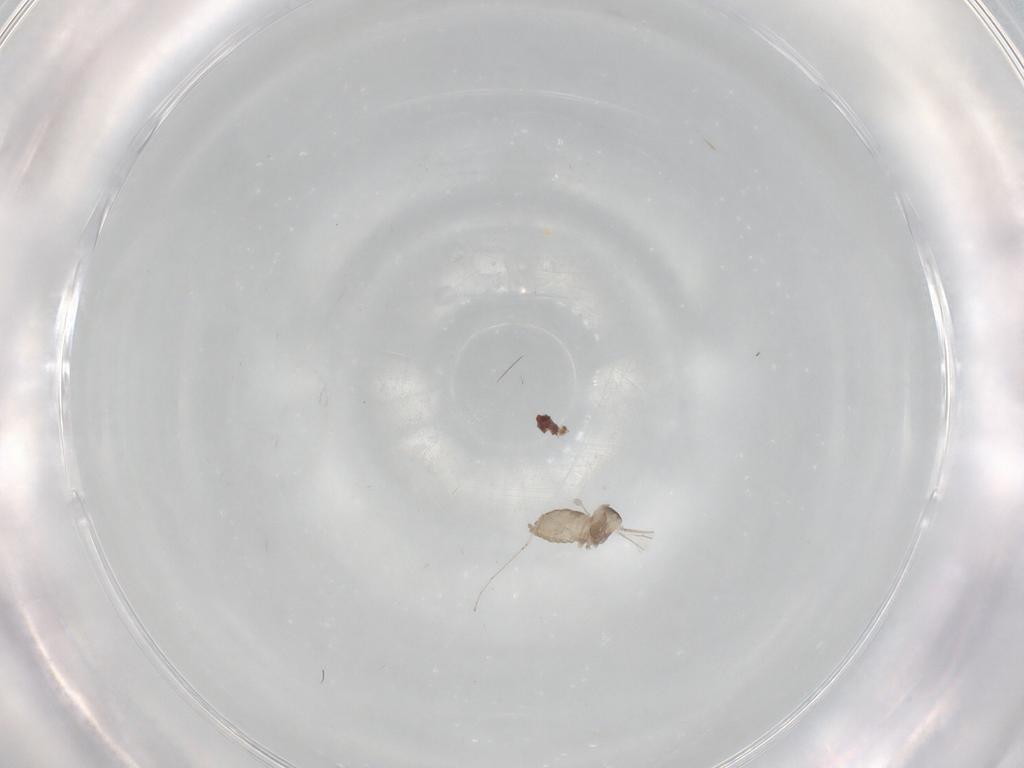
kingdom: Animalia
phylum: Arthropoda
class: Insecta
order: Diptera
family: Cecidomyiidae
